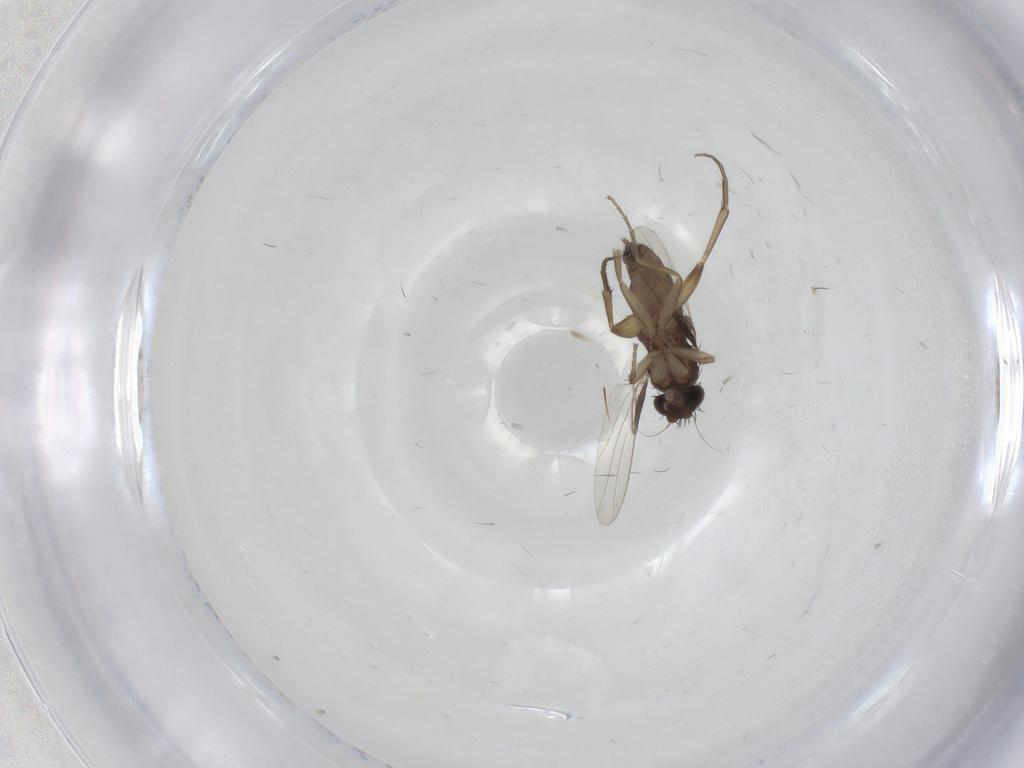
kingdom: Animalia
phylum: Arthropoda
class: Insecta
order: Diptera
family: Phoridae
